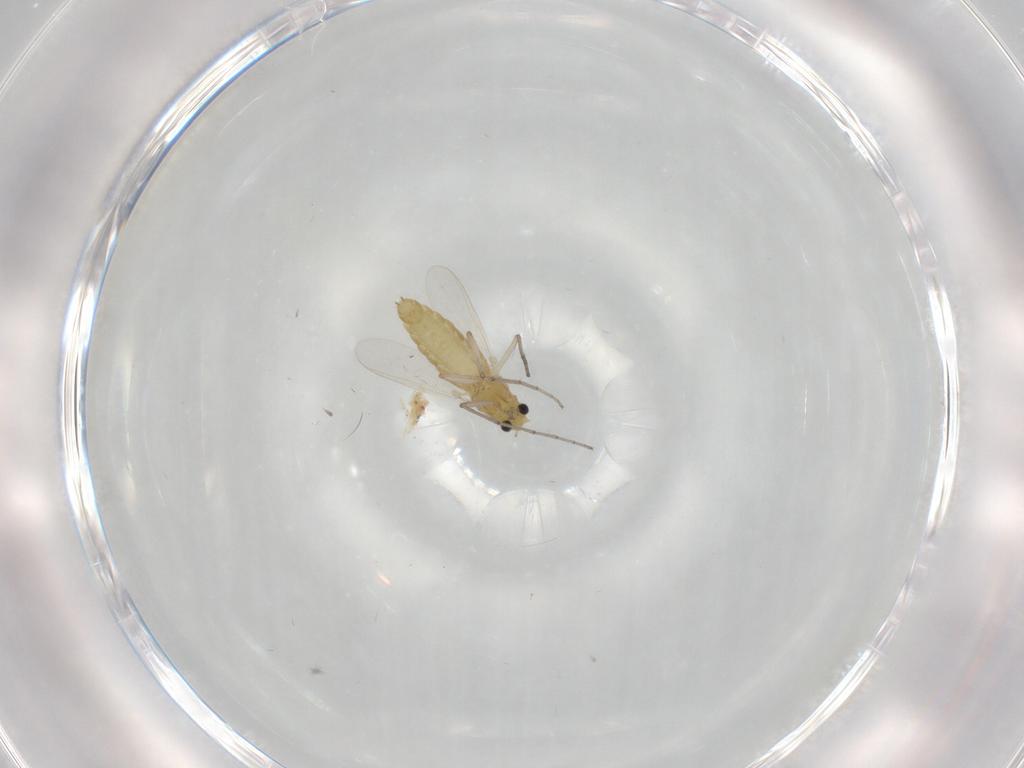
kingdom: Animalia
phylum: Arthropoda
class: Insecta
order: Diptera
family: Chironomidae
